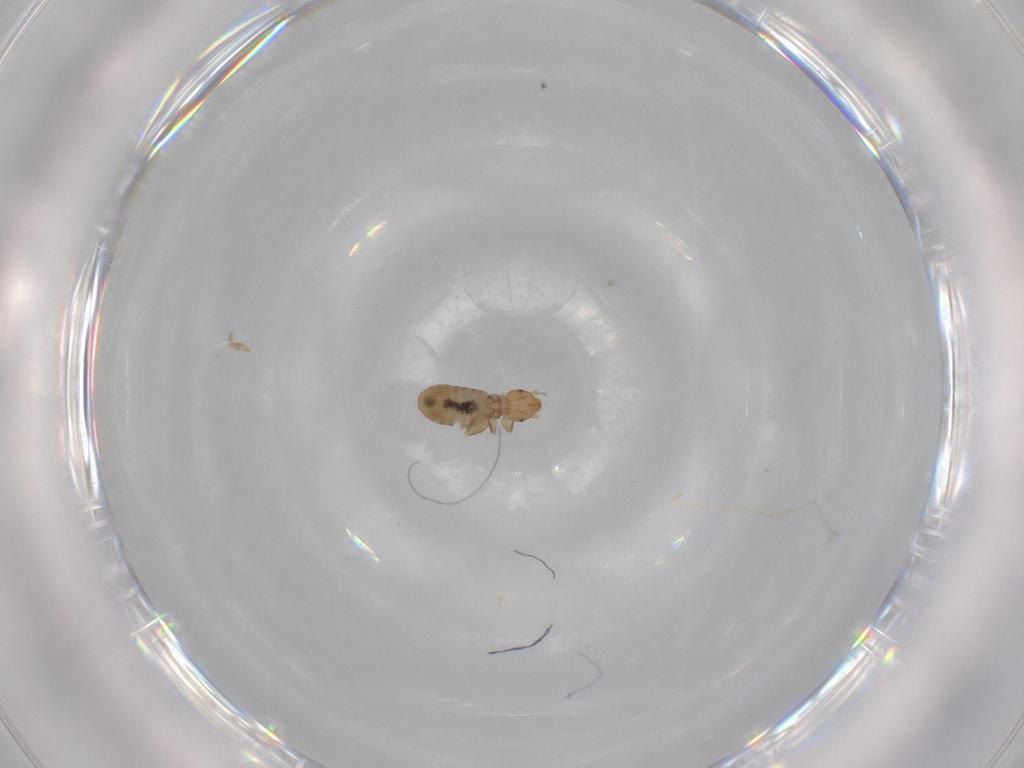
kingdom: Animalia
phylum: Arthropoda
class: Insecta
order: Psocodea
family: Liposcelididae
